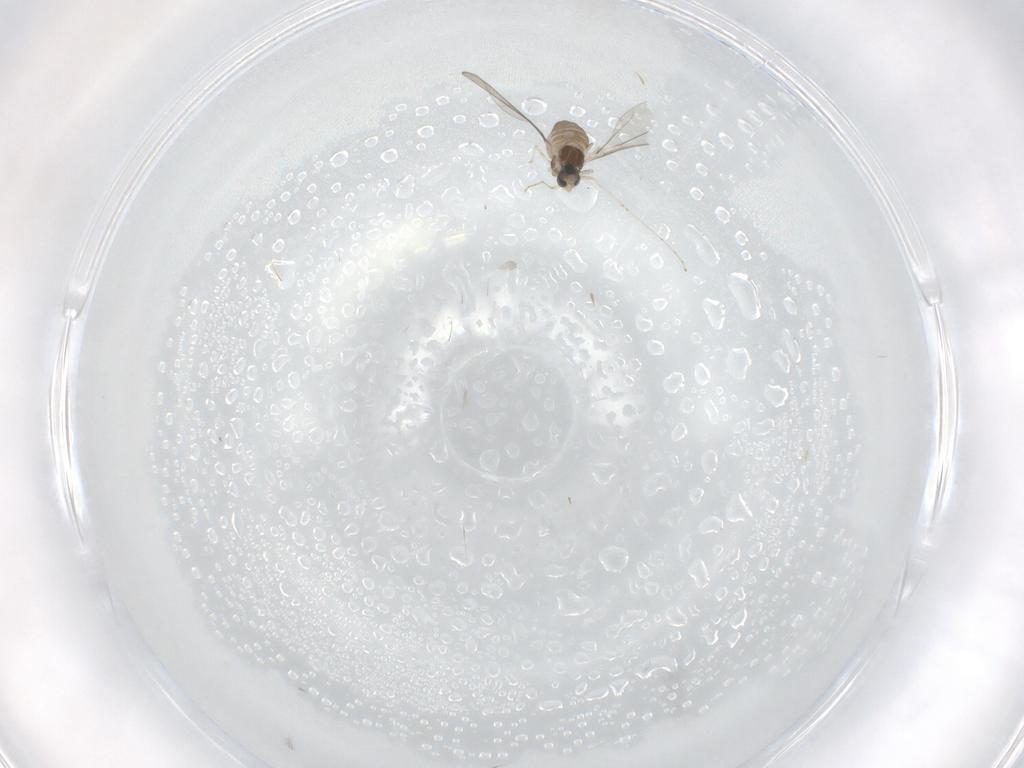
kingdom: Animalia
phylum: Arthropoda
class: Insecta
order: Diptera
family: Cecidomyiidae
